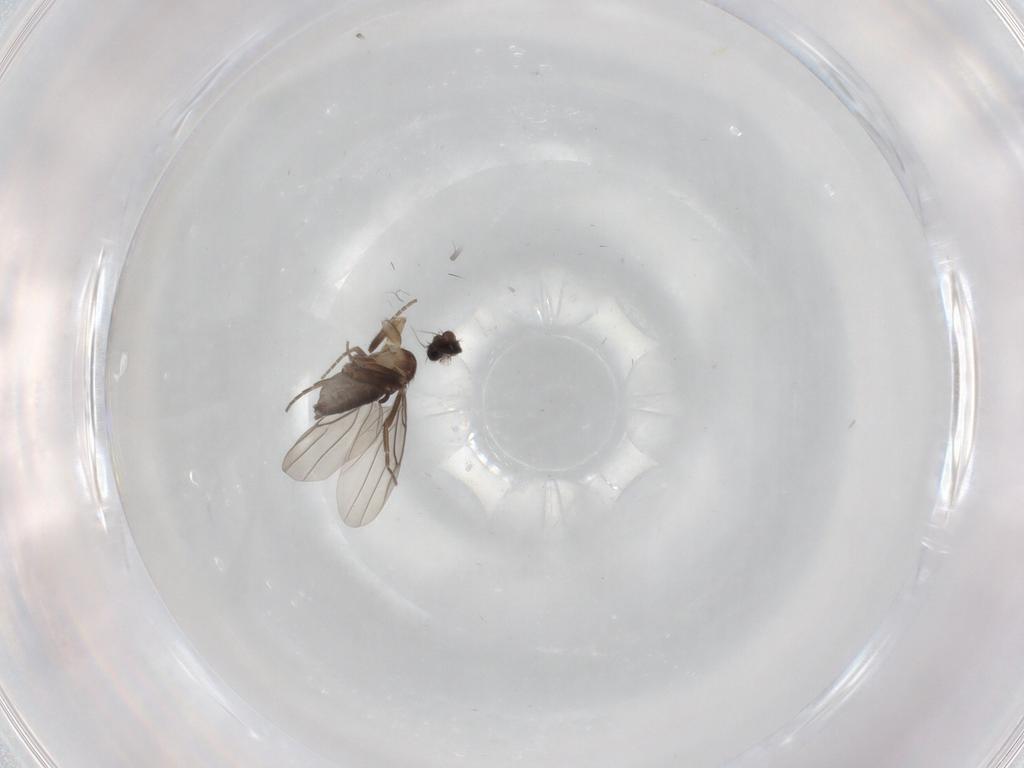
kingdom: Animalia
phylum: Arthropoda
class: Insecta
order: Diptera
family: Phoridae
